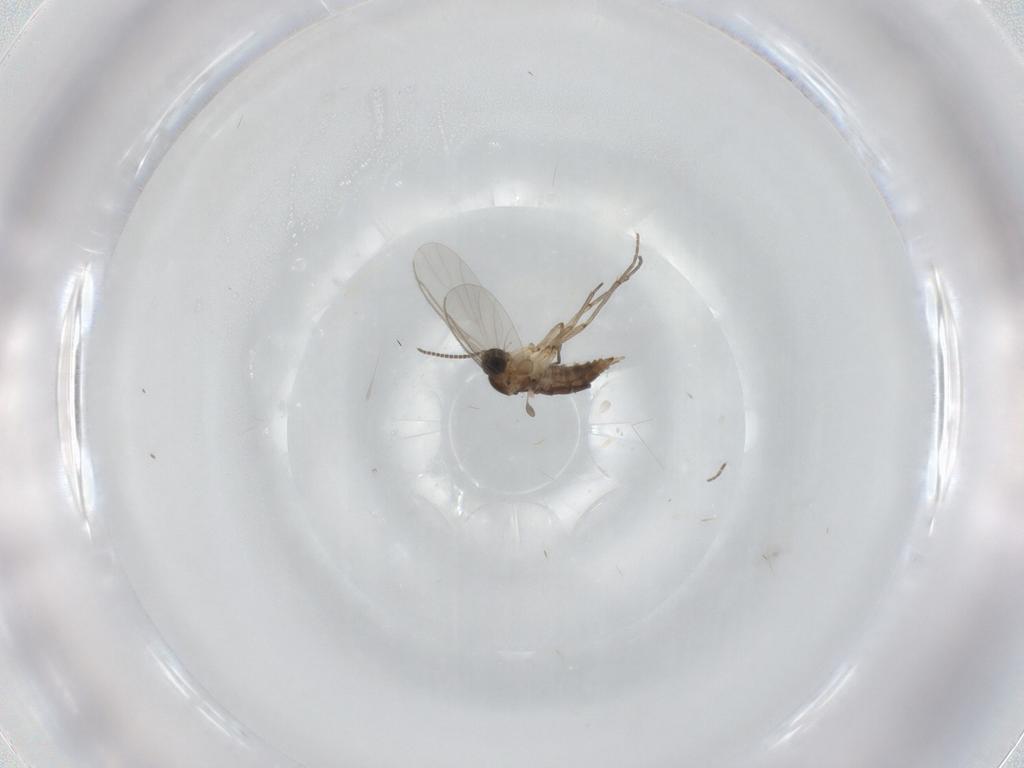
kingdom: Animalia
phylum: Arthropoda
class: Insecta
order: Diptera
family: Sciaridae
